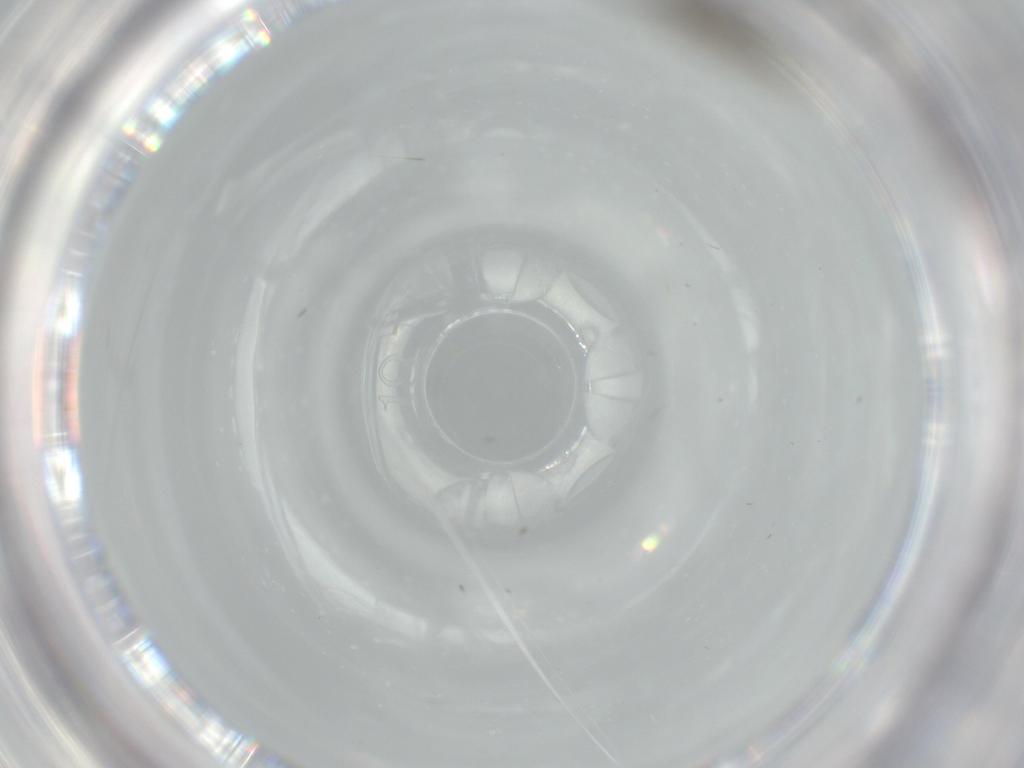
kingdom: Animalia
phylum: Arthropoda
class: Insecta
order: Diptera
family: Cecidomyiidae
